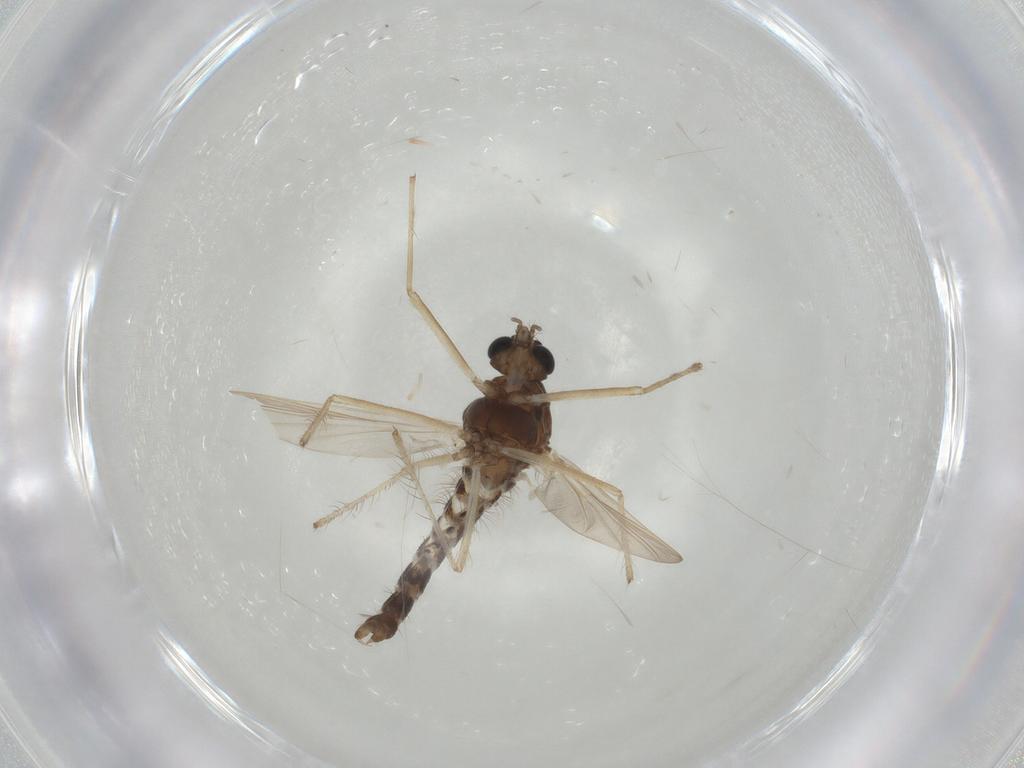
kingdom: Animalia
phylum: Arthropoda
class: Insecta
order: Diptera
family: Chironomidae
